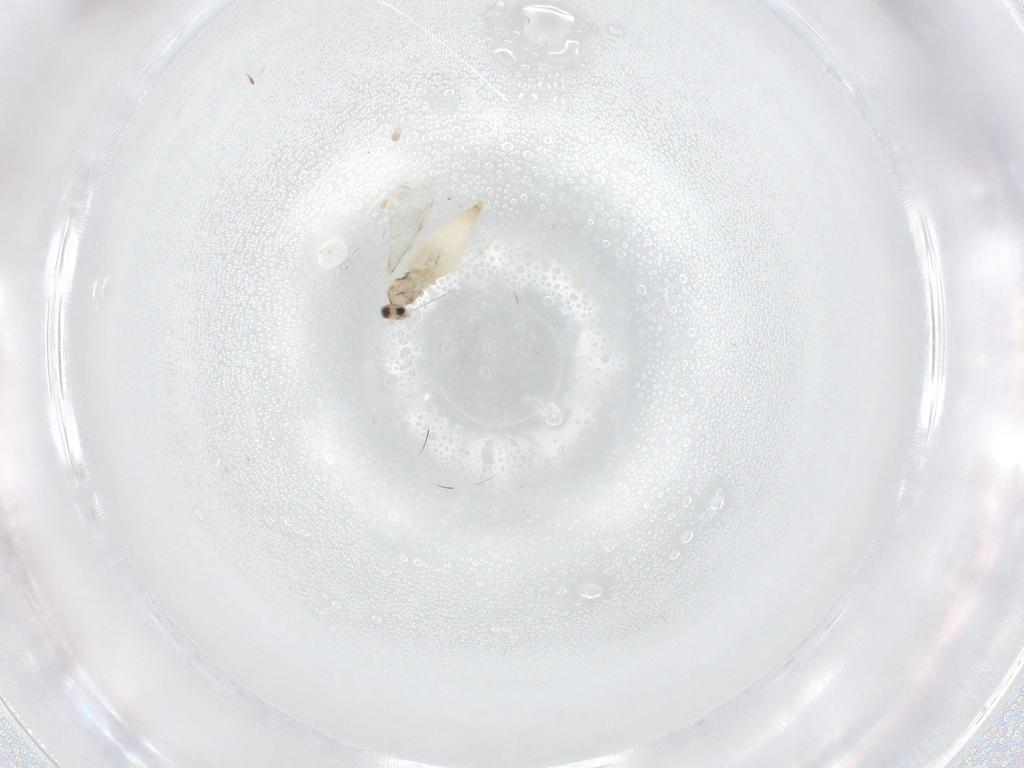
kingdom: Animalia
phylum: Arthropoda
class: Insecta
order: Diptera
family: Cecidomyiidae
